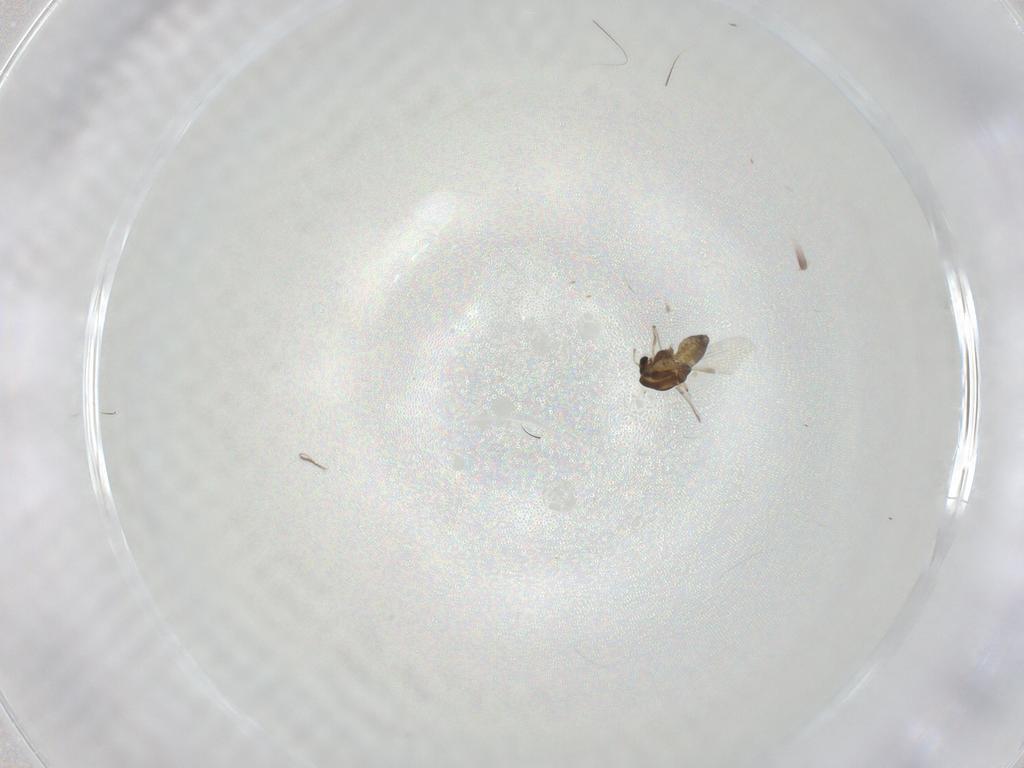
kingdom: Animalia
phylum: Arthropoda
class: Insecta
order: Diptera
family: Chironomidae
